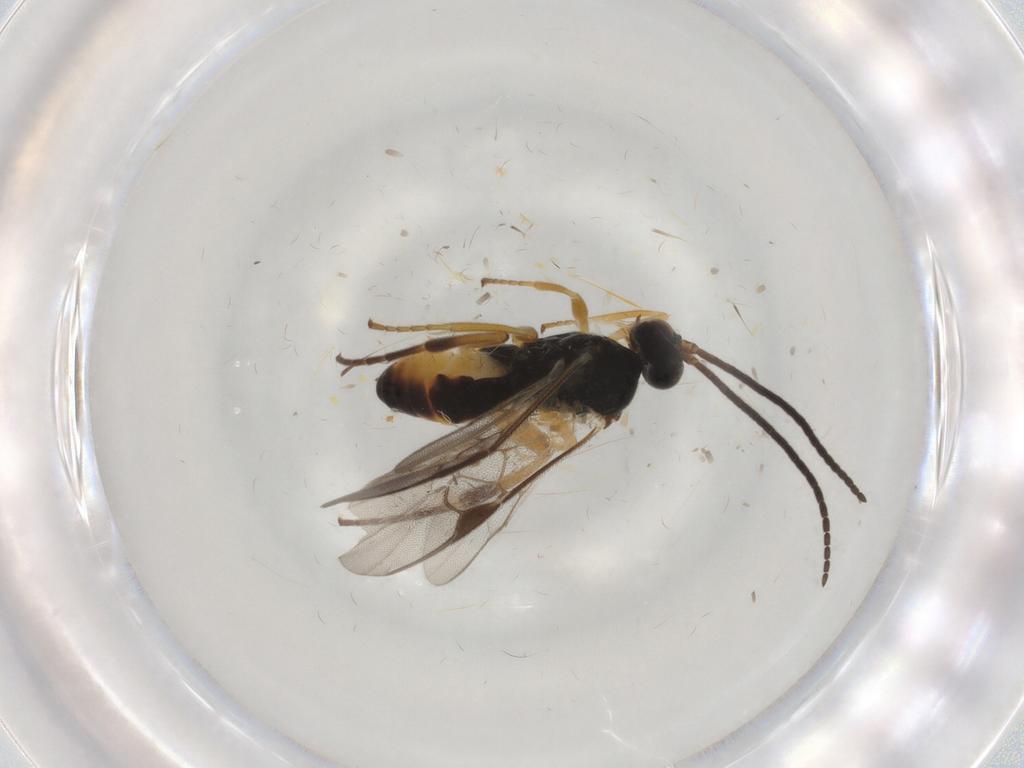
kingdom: Animalia
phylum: Arthropoda
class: Insecta
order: Hymenoptera
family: Braconidae
